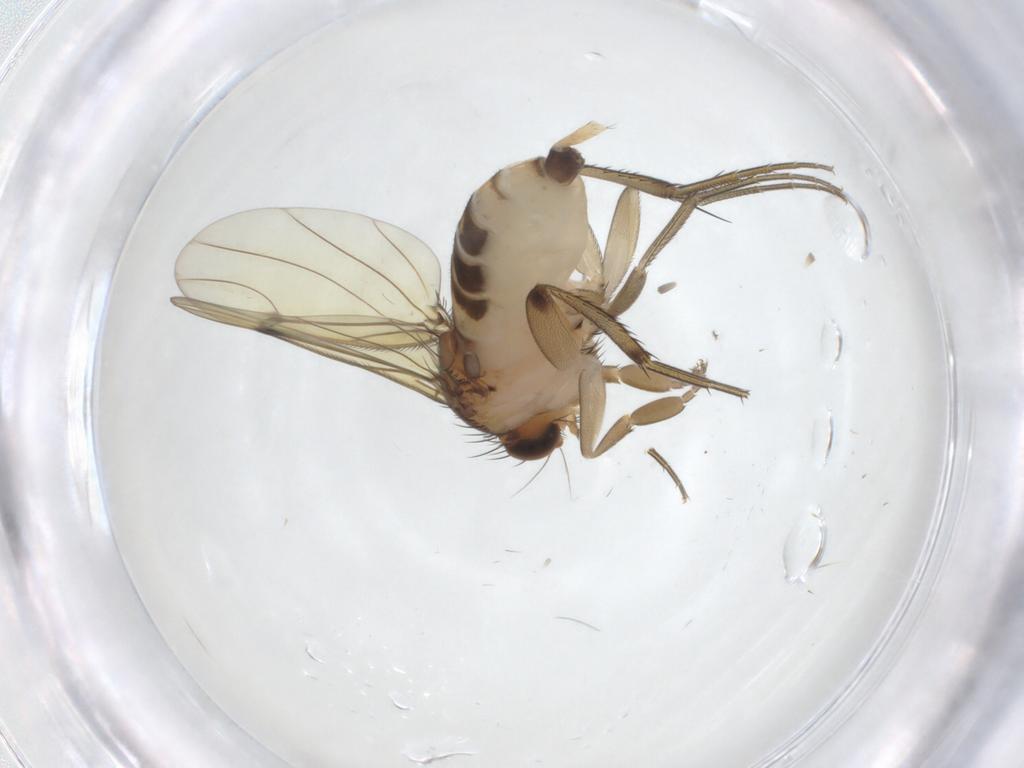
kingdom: Animalia
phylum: Arthropoda
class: Insecta
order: Diptera
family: Phoridae
